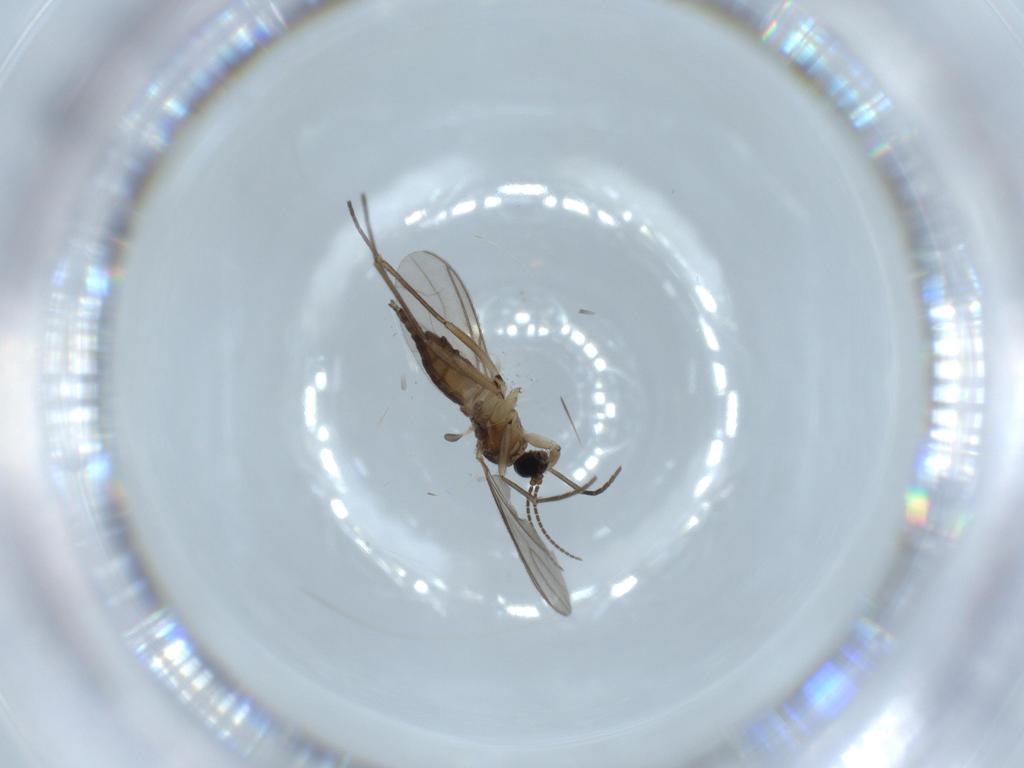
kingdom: Animalia
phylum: Arthropoda
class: Insecta
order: Diptera
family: Sciaridae
